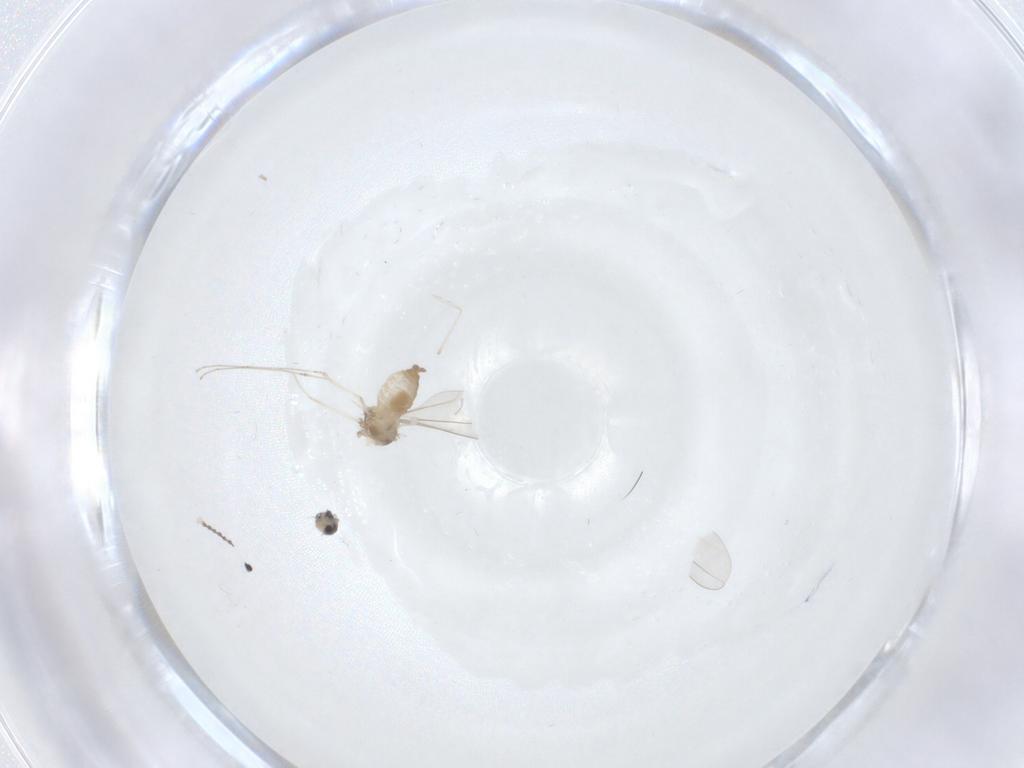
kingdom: Animalia
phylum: Arthropoda
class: Insecta
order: Diptera
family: Cecidomyiidae
